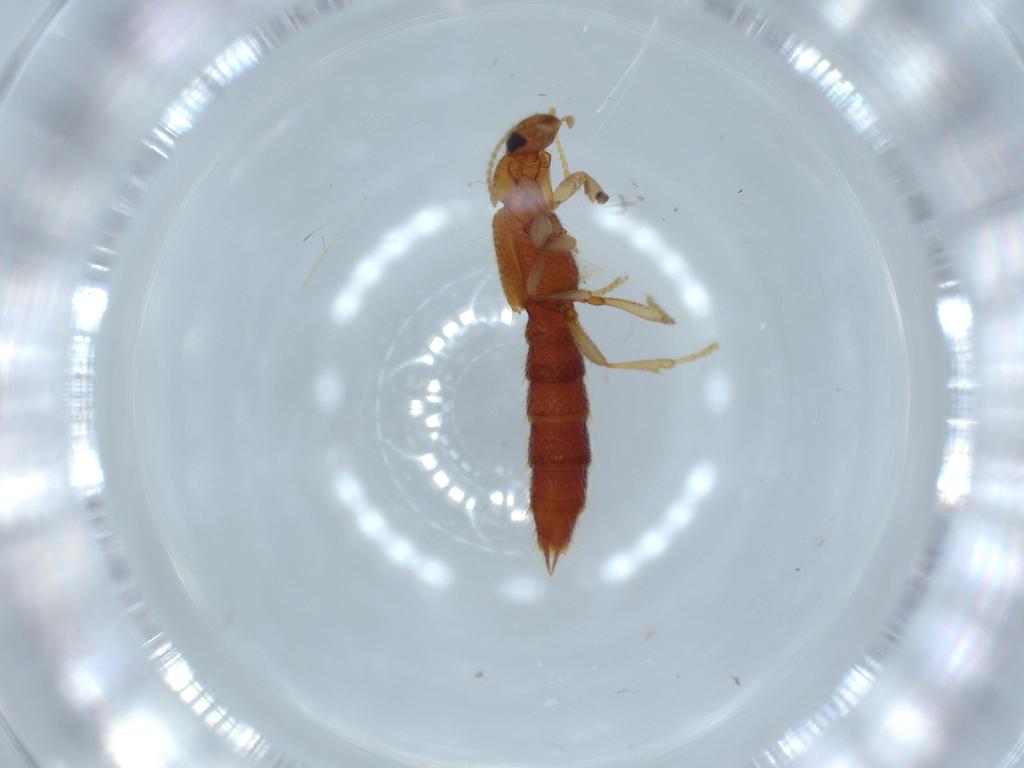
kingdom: Animalia
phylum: Arthropoda
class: Insecta
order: Coleoptera
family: Staphylinidae
